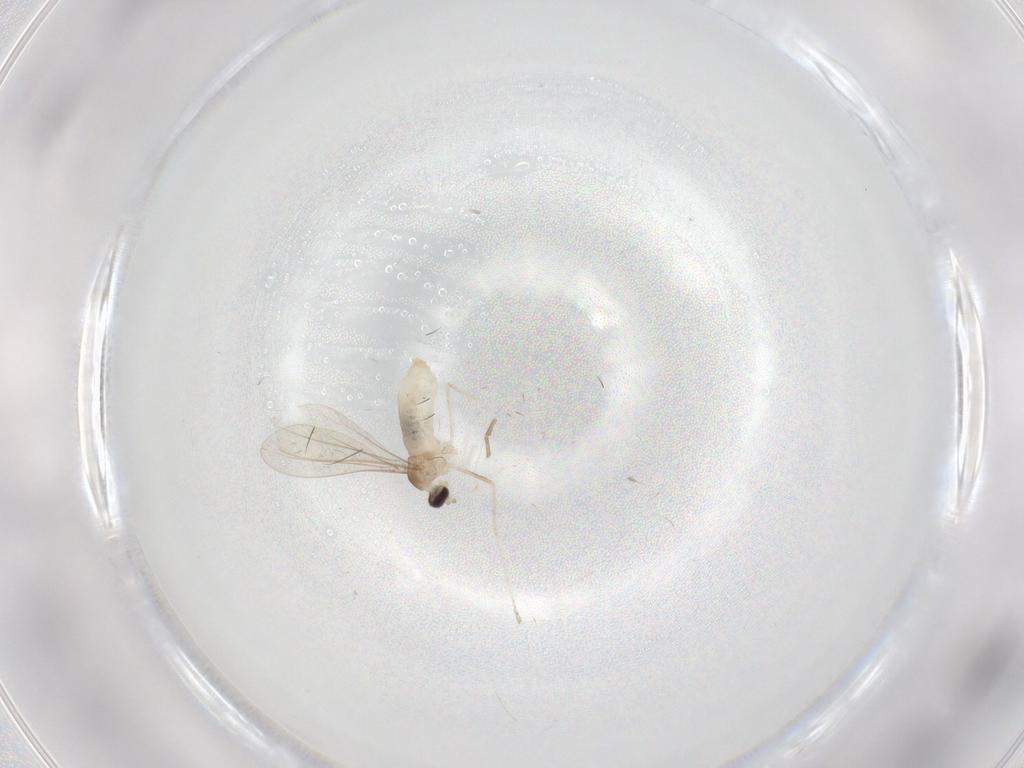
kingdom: Animalia
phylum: Arthropoda
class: Insecta
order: Diptera
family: Cecidomyiidae
